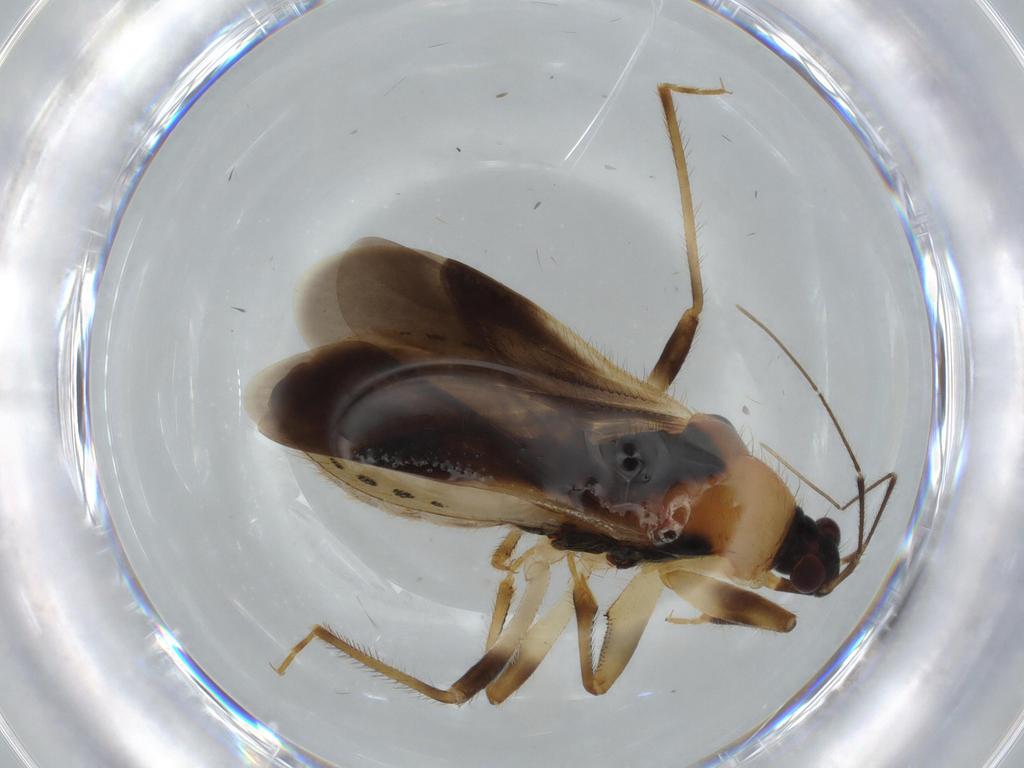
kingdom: Animalia
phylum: Arthropoda
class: Insecta
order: Hemiptera
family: Nabidae
